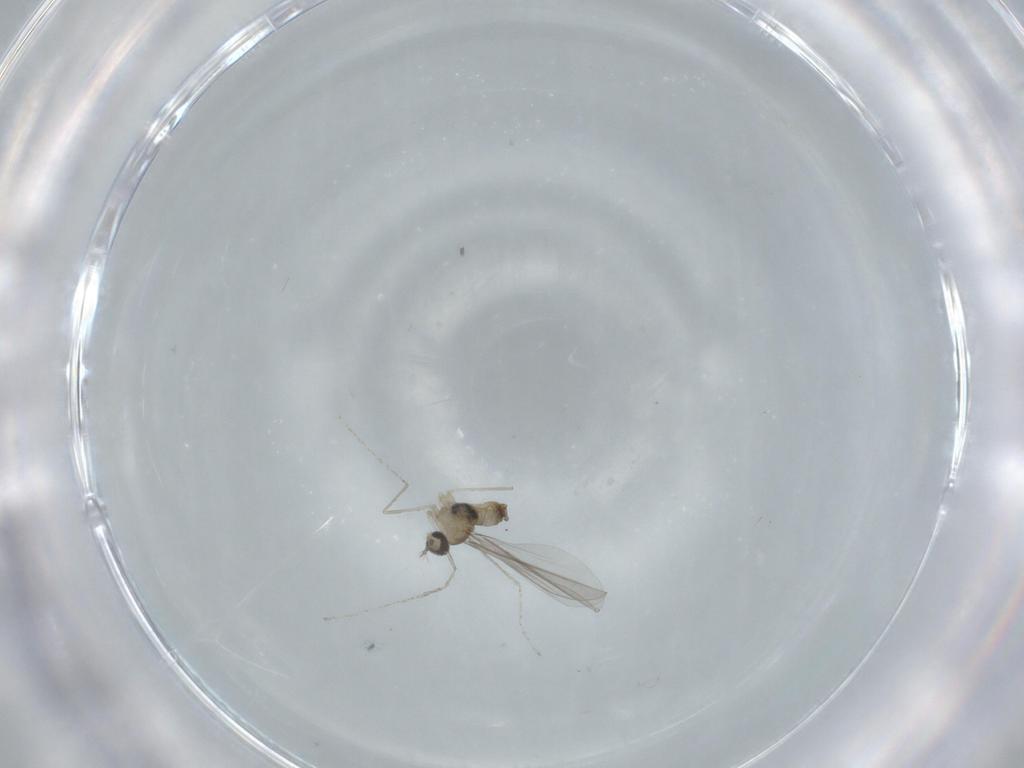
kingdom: Animalia
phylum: Arthropoda
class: Insecta
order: Diptera
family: Cecidomyiidae
